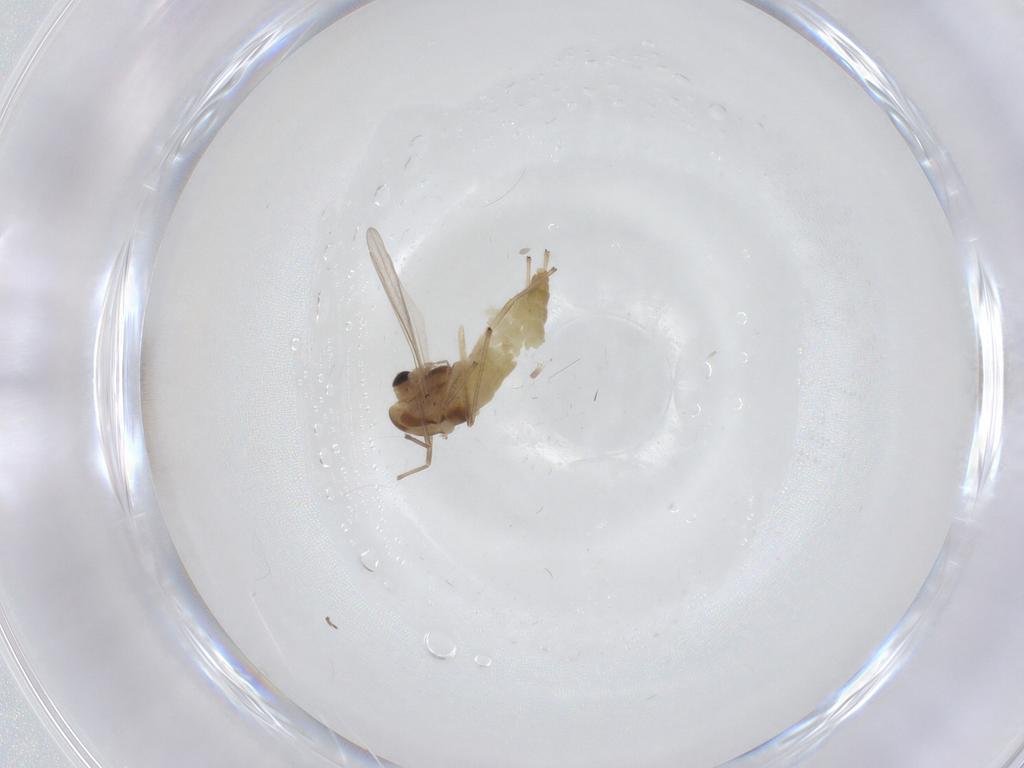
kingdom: Animalia
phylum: Arthropoda
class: Insecta
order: Diptera
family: Chironomidae
